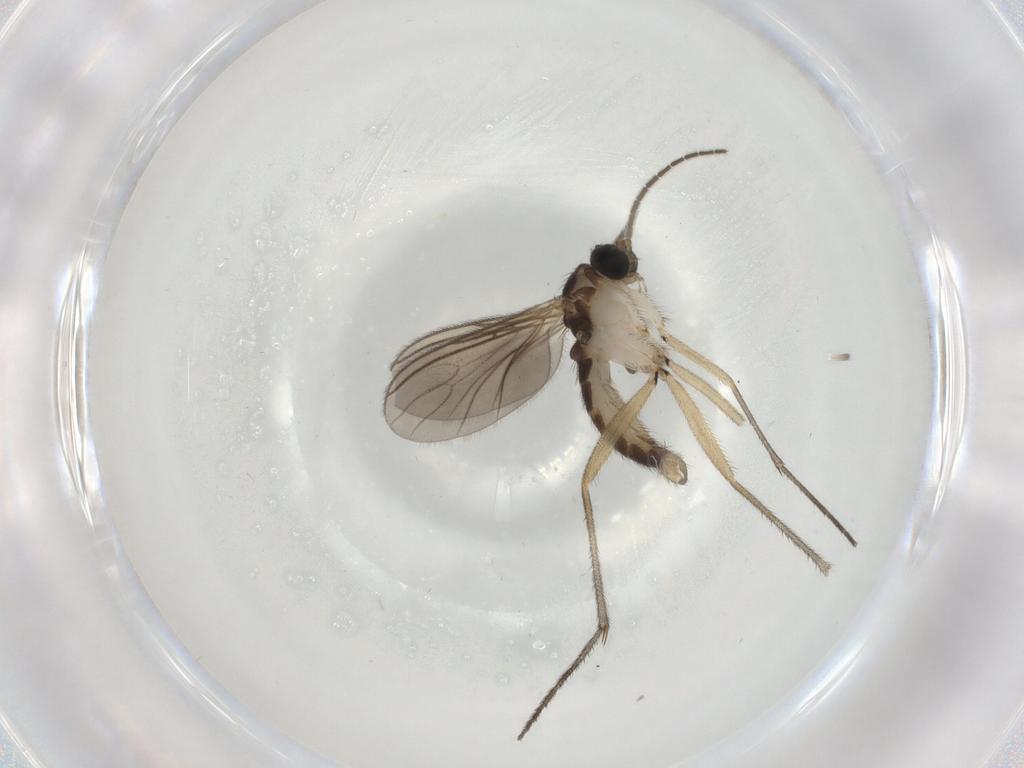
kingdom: Animalia
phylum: Arthropoda
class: Insecta
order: Diptera
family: Sciaridae
